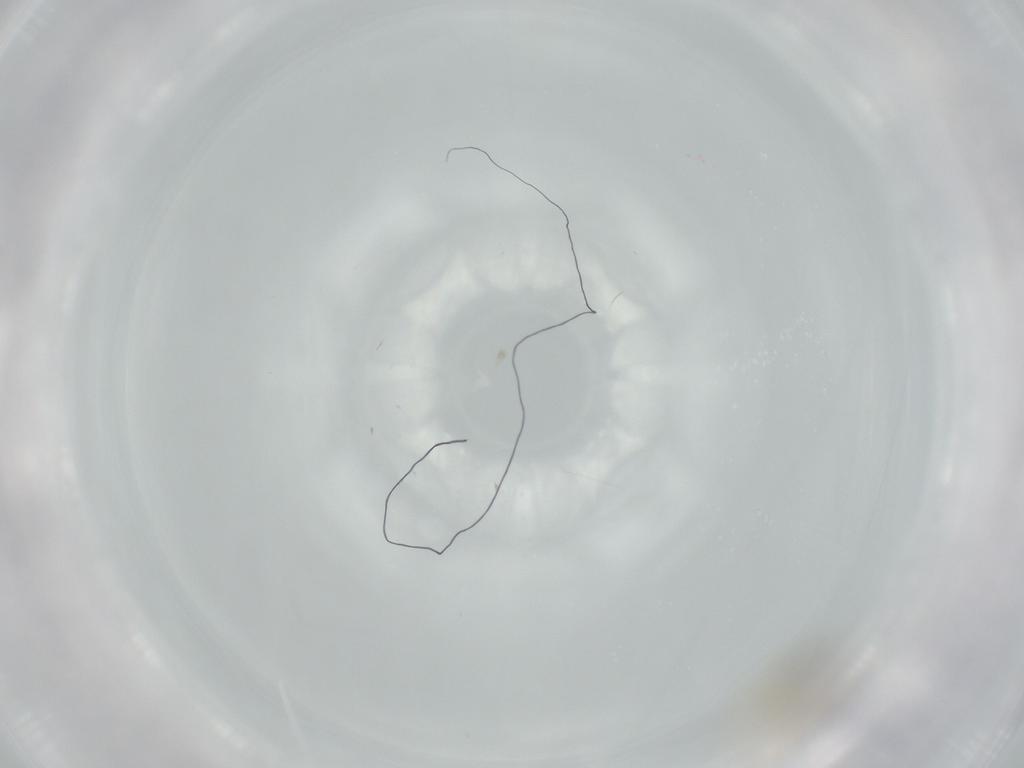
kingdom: Animalia
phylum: Arthropoda
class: Insecta
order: Diptera
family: Cecidomyiidae
